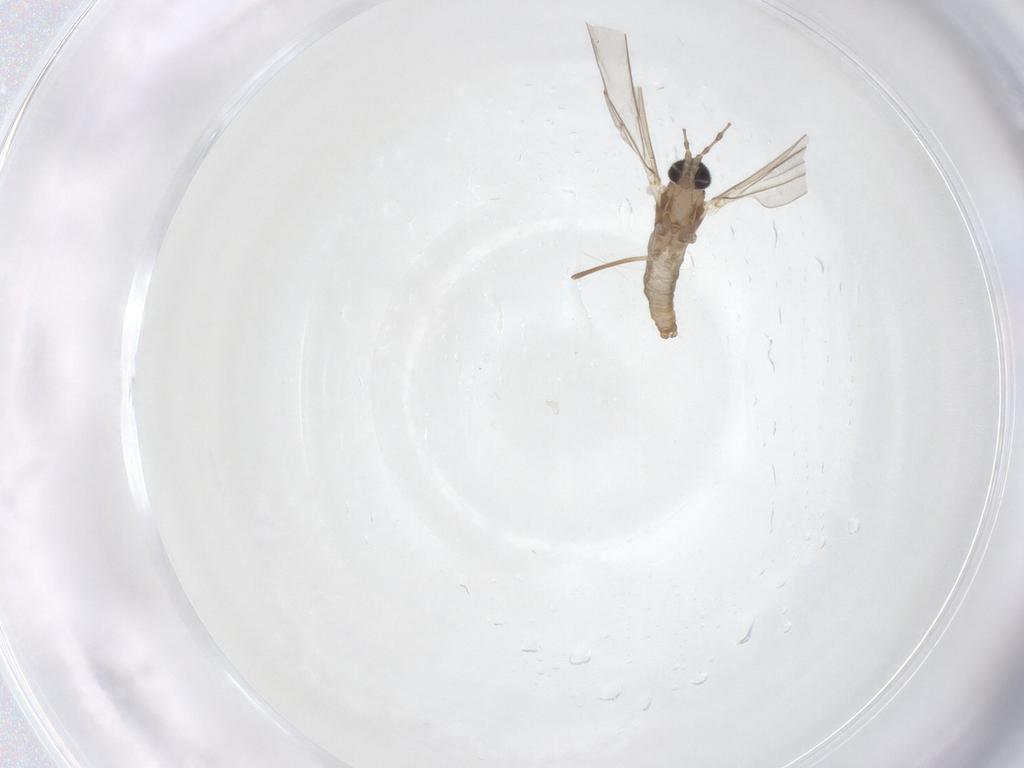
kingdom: Animalia
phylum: Arthropoda
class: Insecta
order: Diptera
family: Cecidomyiidae
